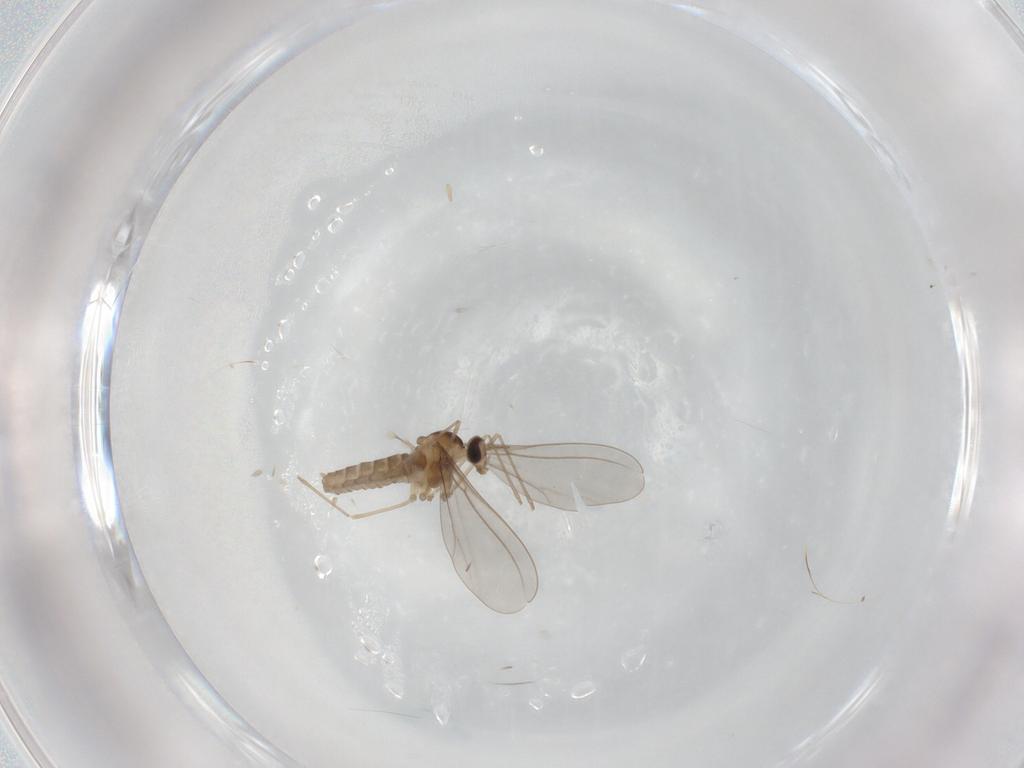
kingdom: Animalia
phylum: Arthropoda
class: Insecta
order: Diptera
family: Cecidomyiidae
